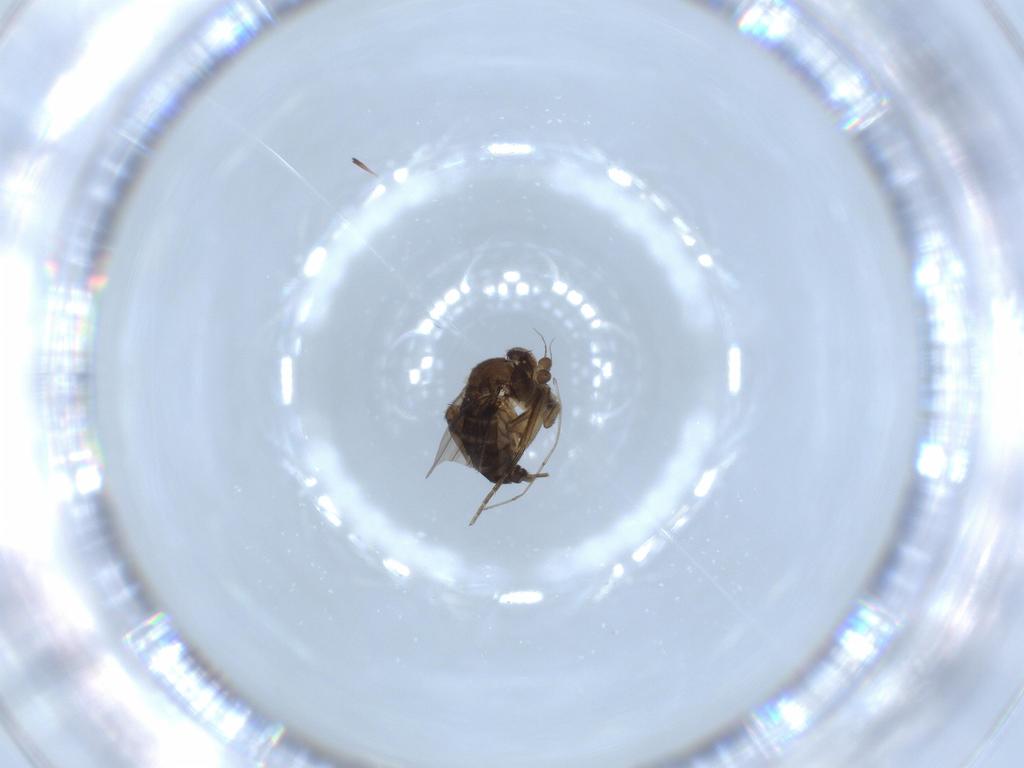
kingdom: Animalia
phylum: Arthropoda
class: Insecta
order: Diptera
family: Phoridae
